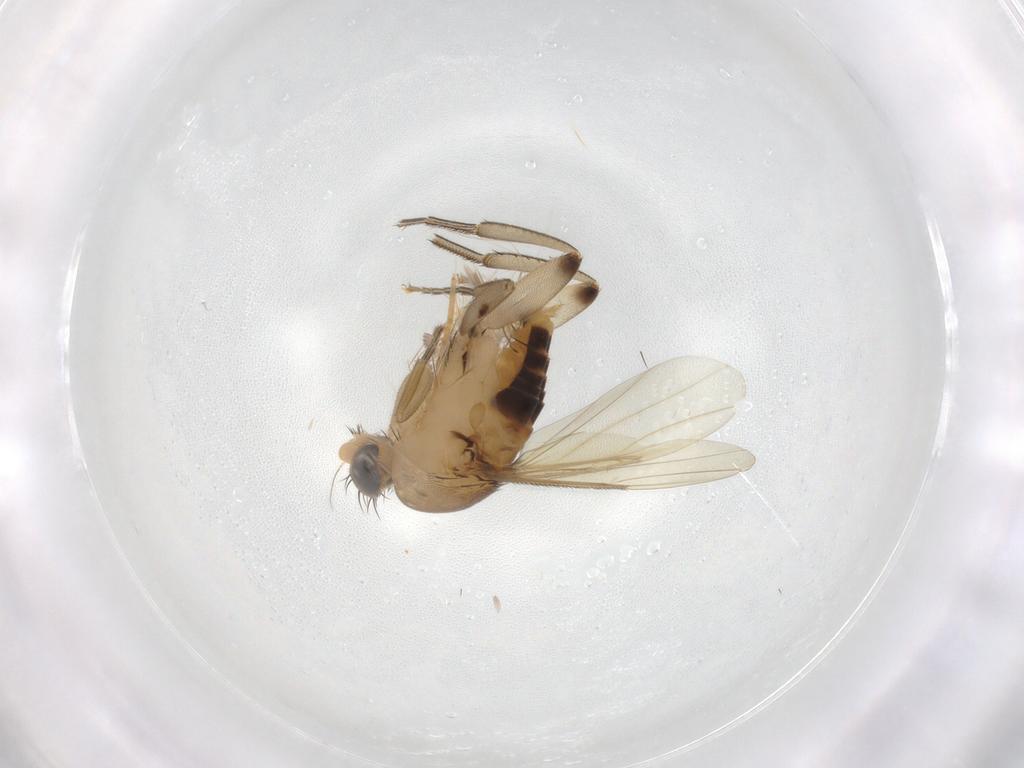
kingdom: Animalia
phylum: Arthropoda
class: Insecta
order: Diptera
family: Phoridae
